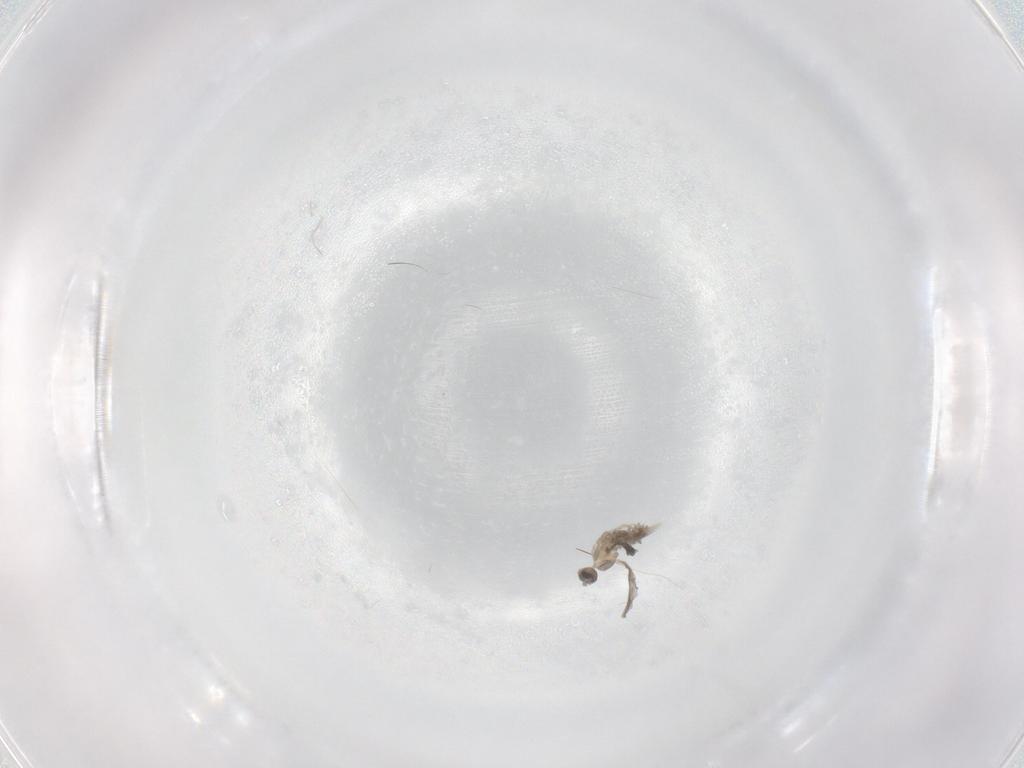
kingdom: Animalia
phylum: Arthropoda
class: Insecta
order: Diptera
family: Cecidomyiidae
